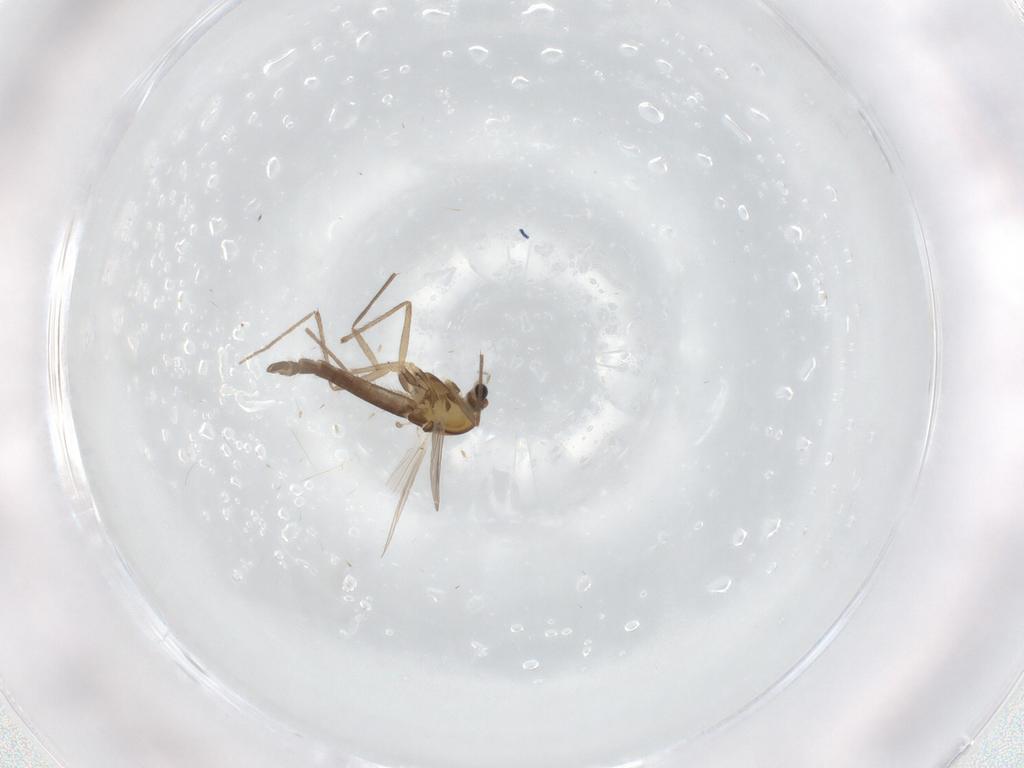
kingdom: Animalia
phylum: Arthropoda
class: Insecta
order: Diptera
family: Chironomidae
